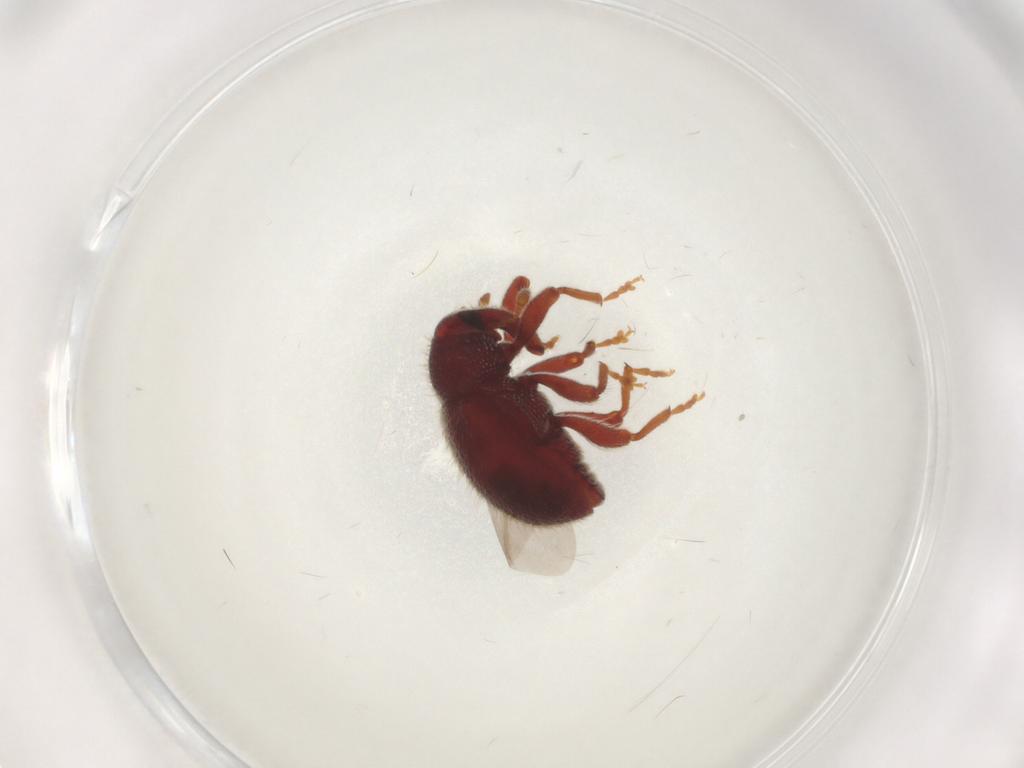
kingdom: Animalia
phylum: Arthropoda
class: Insecta
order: Coleoptera
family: Curculionidae
